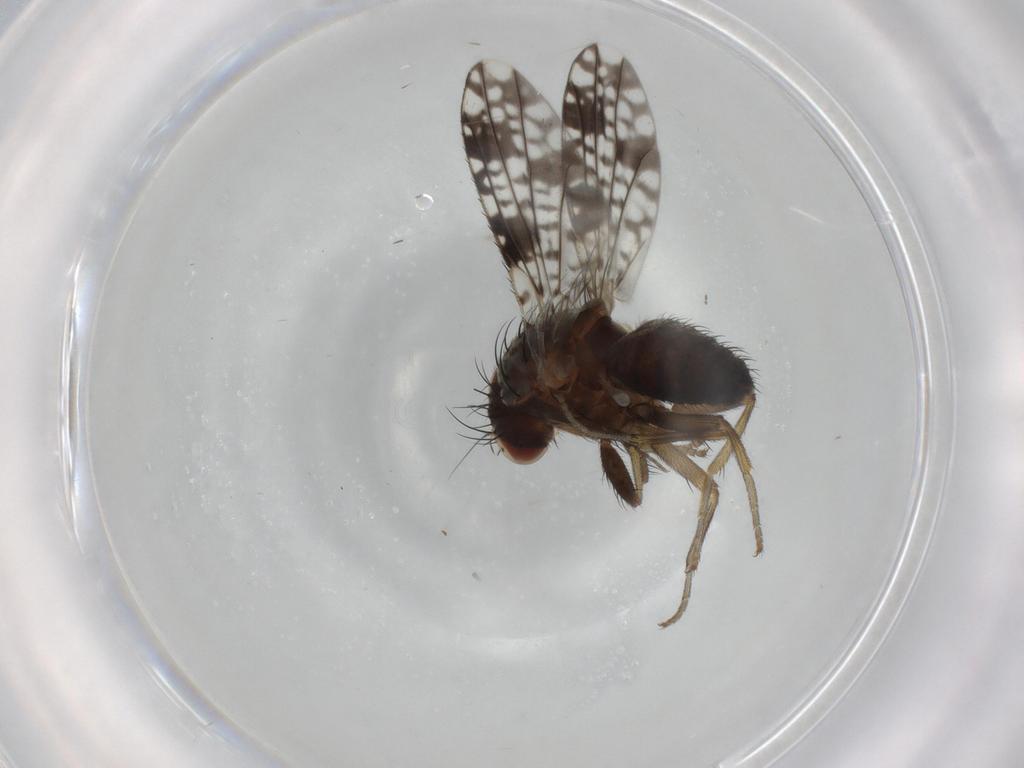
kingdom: Animalia
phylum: Arthropoda
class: Insecta
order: Diptera
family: Tephritidae
